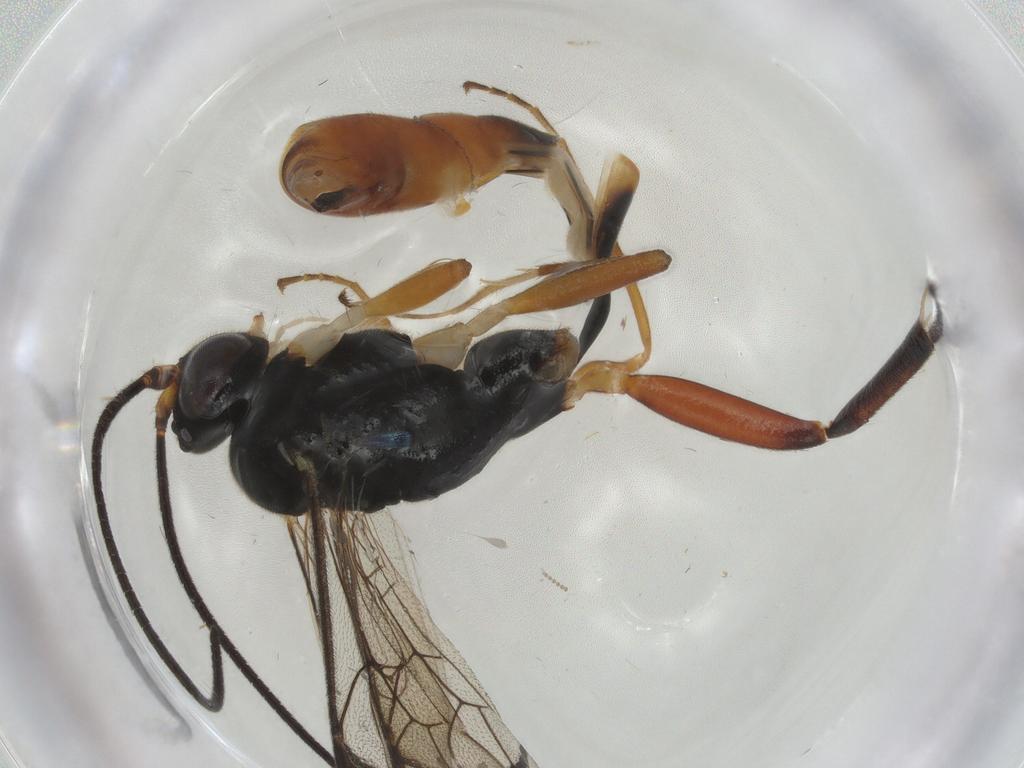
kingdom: Animalia
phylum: Arthropoda
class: Insecta
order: Hymenoptera
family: Ichneumonidae
